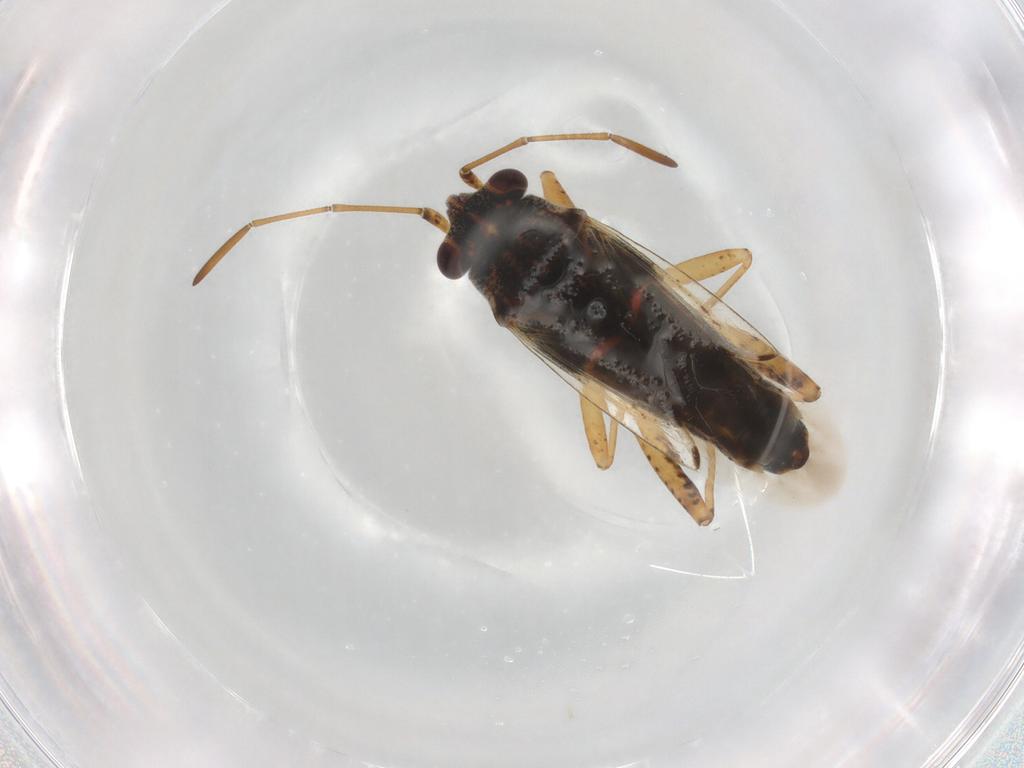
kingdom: Animalia
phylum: Arthropoda
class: Insecta
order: Hemiptera
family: Lygaeidae
